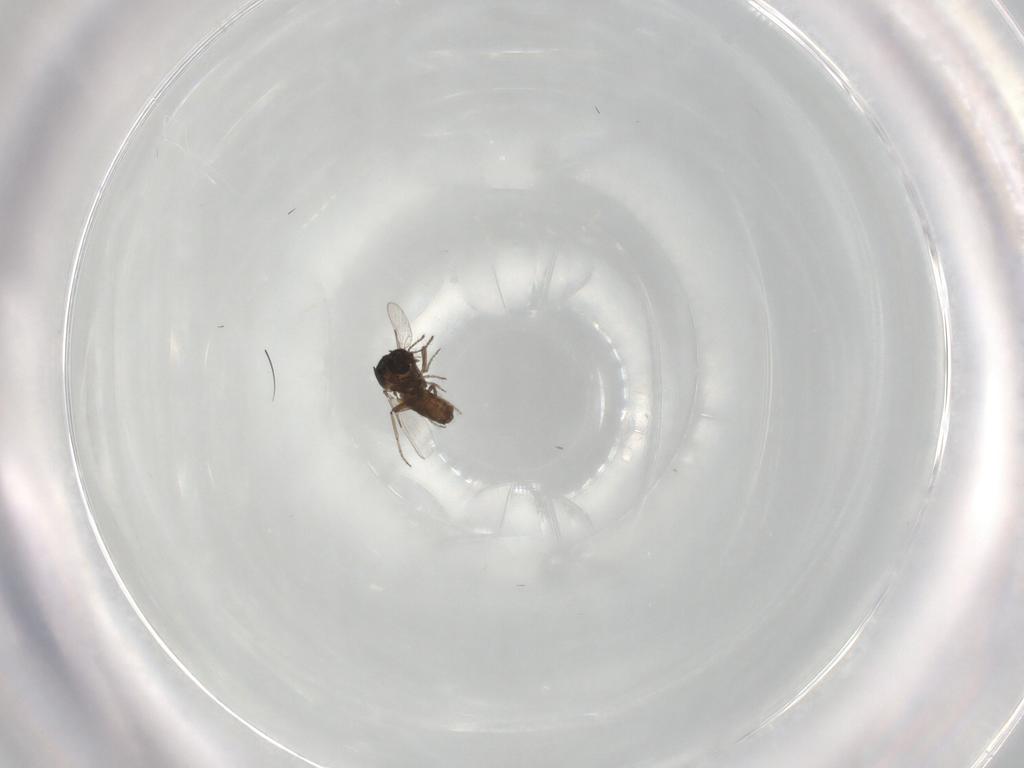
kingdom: Animalia
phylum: Arthropoda
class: Insecta
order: Diptera
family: Ceratopogonidae
